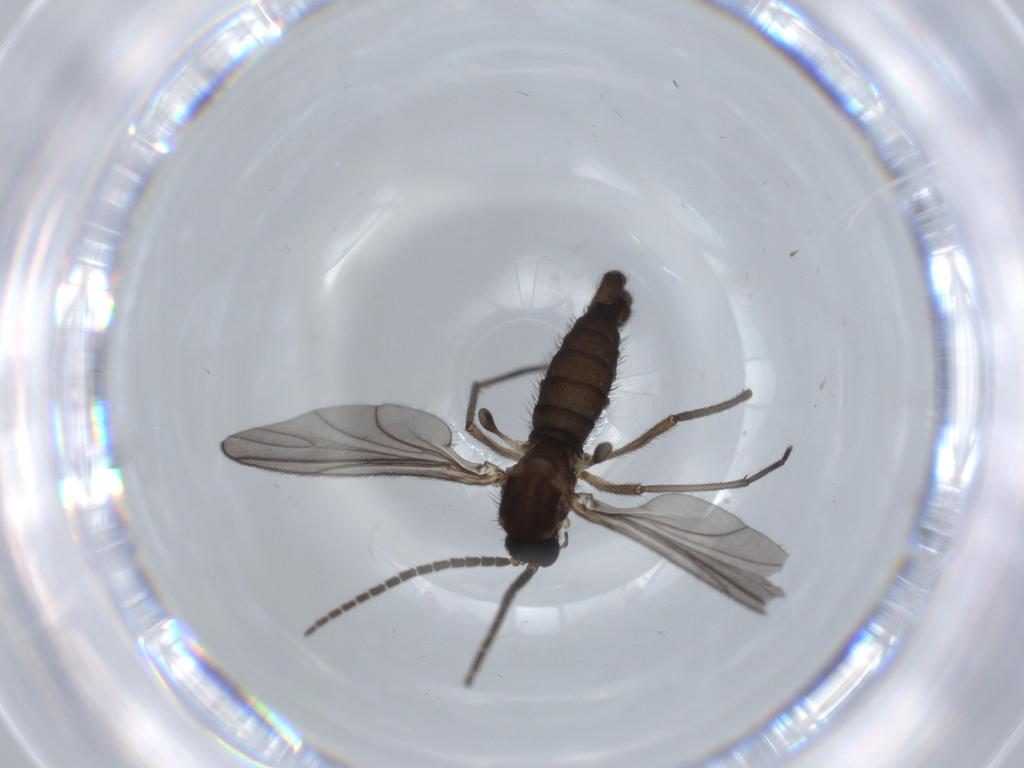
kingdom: Animalia
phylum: Arthropoda
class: Insecta
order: Diptera
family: Sciaridae
